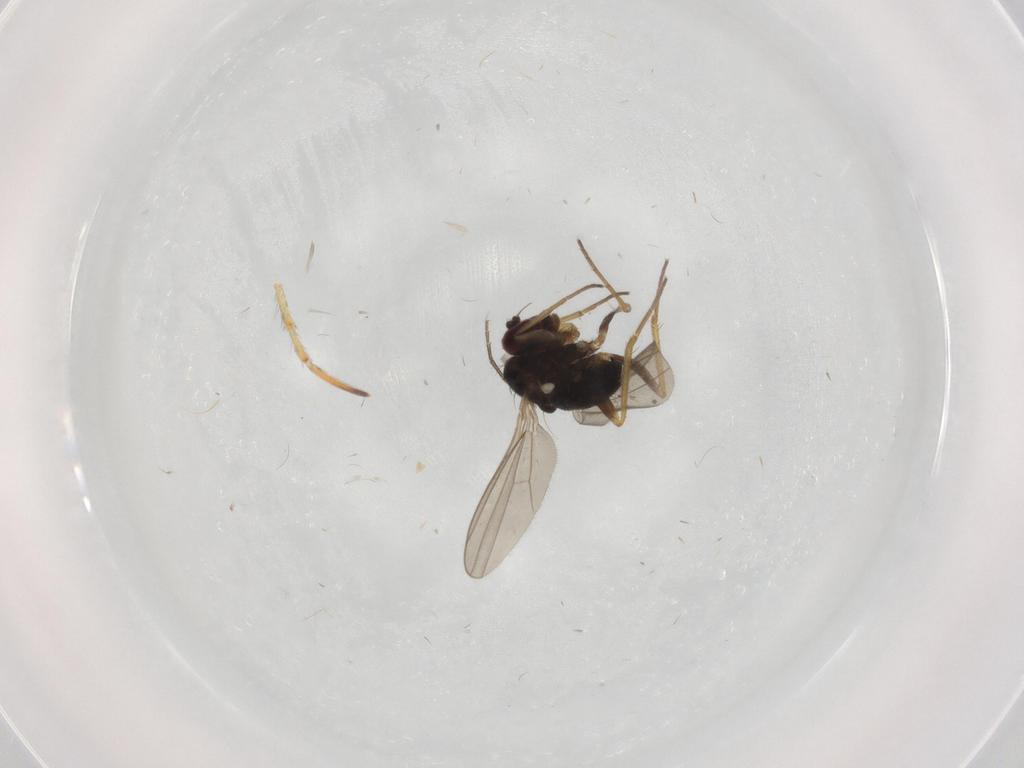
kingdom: Animalia
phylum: Arthropoda
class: Insecta
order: Diptera
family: Dolichopodidae
